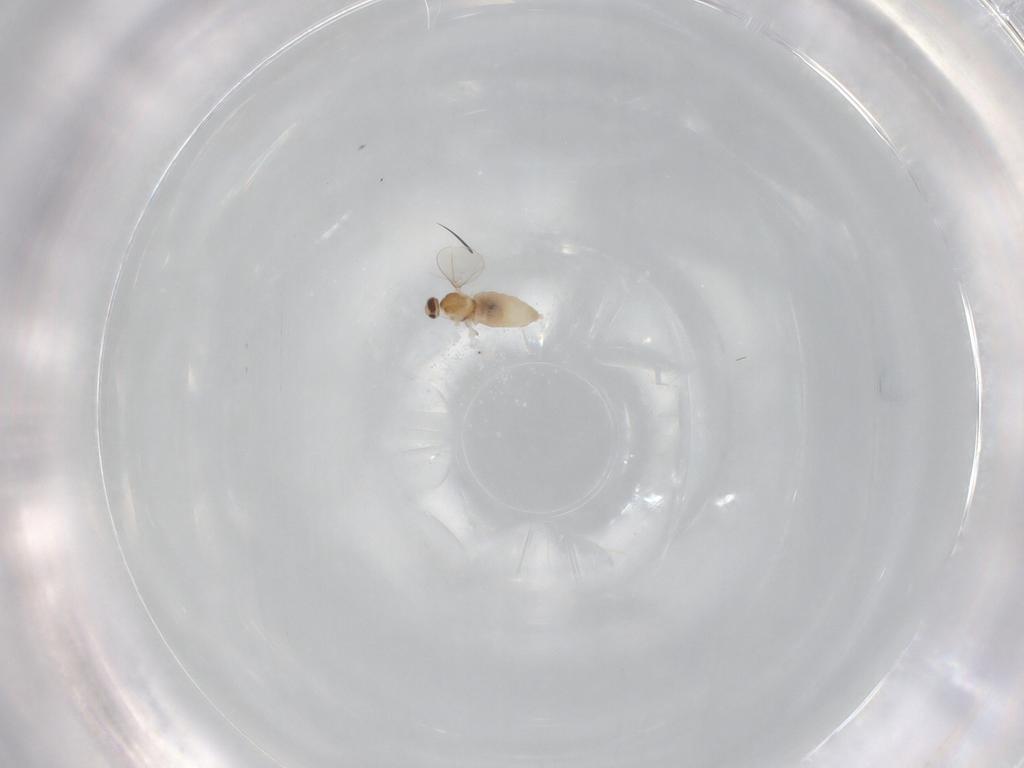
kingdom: Animalia
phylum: Arthropoda
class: Insecta
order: Diptera
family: Cecidomyiidae
